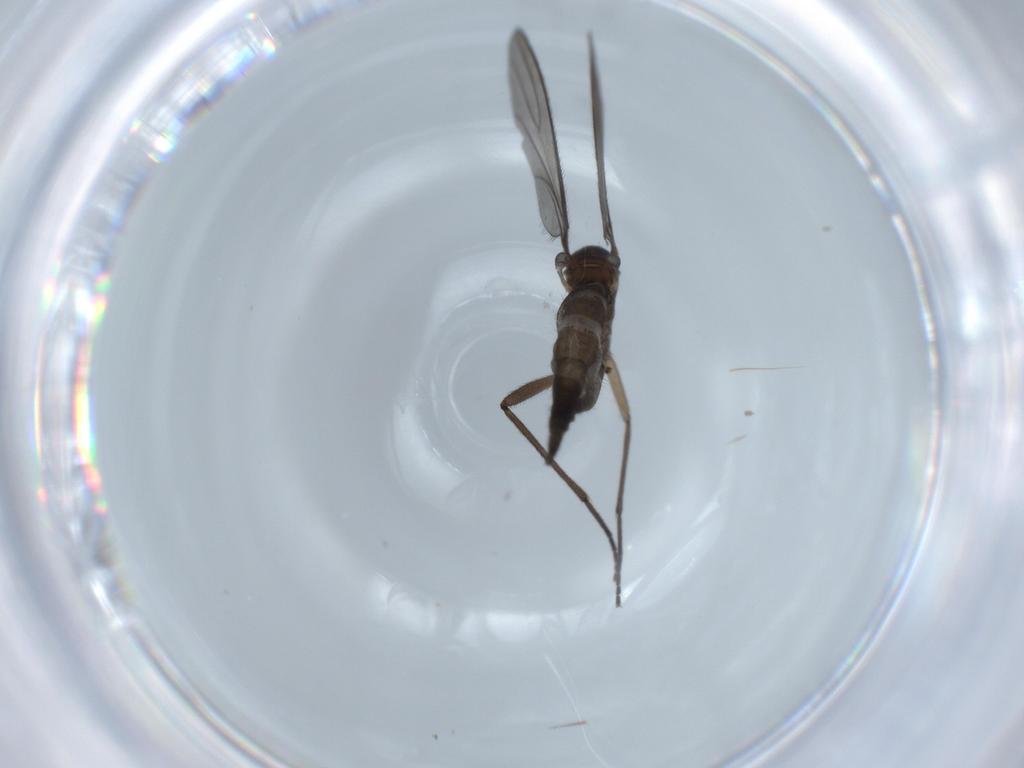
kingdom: Animalia
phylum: Arthropoda
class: Insecta
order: Diptera
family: Sciaridae
